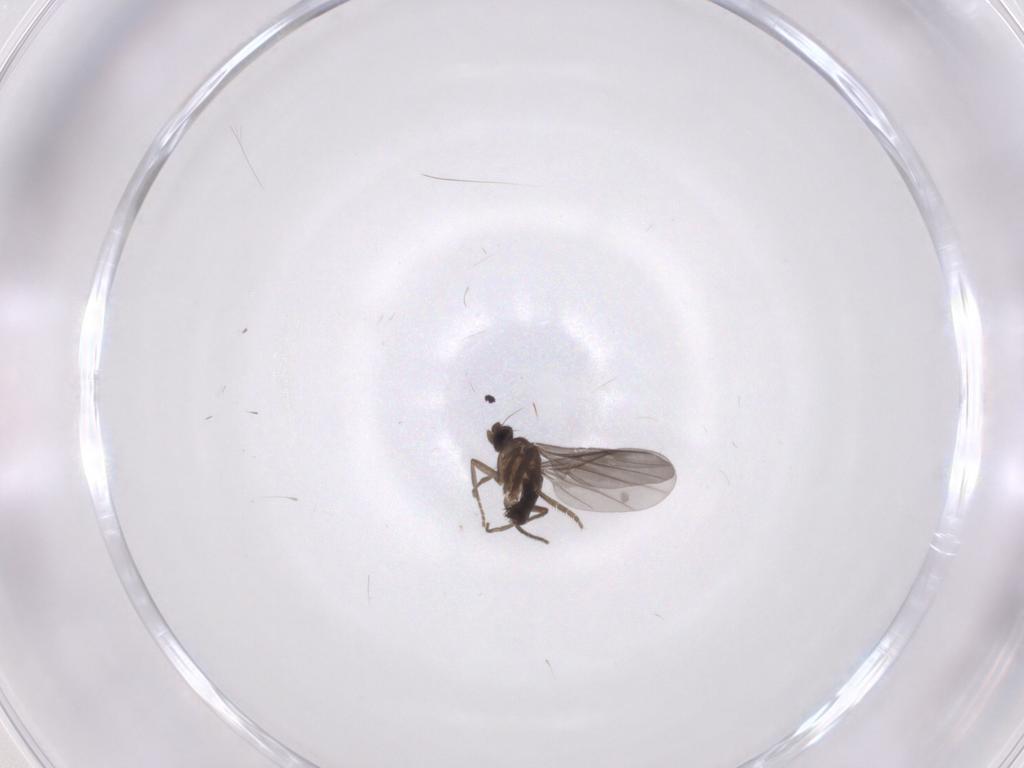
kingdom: Animalia
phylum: Arthropoda
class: Insecta
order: Diptera
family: Ceratopogonidae
